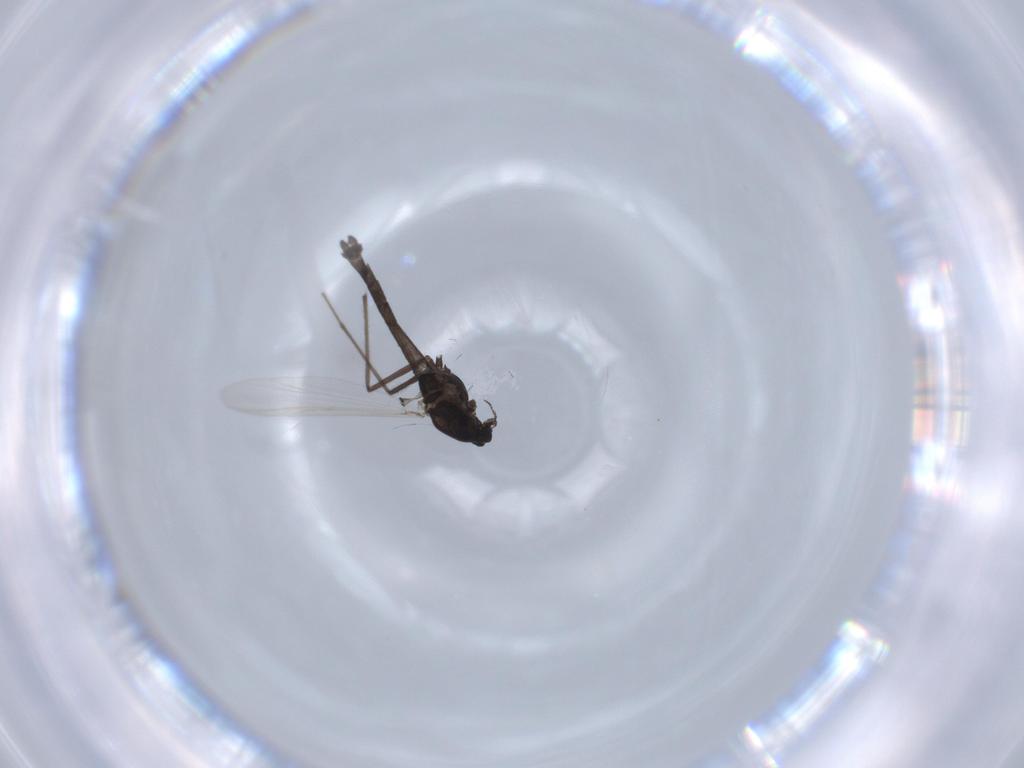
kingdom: Animalia
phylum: Arthropoda
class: Insecta
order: Diptera
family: Chironomidae
